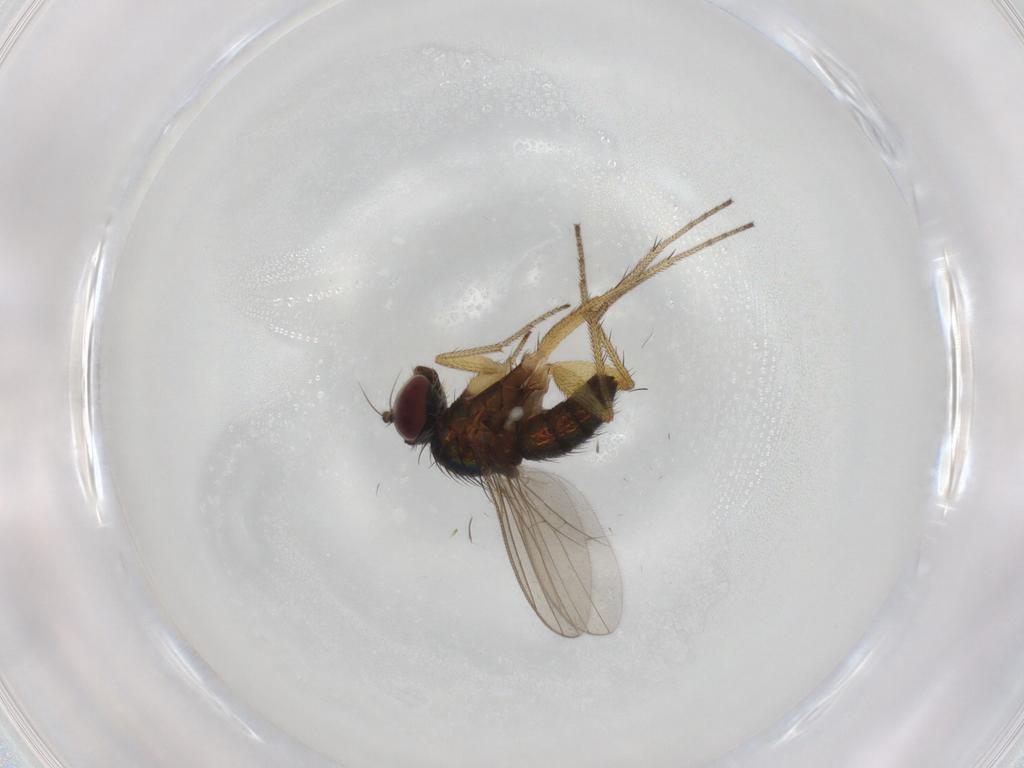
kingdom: Animalia
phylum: Arthropoda
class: Insecta
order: Diptera
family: Dolichopodidae
